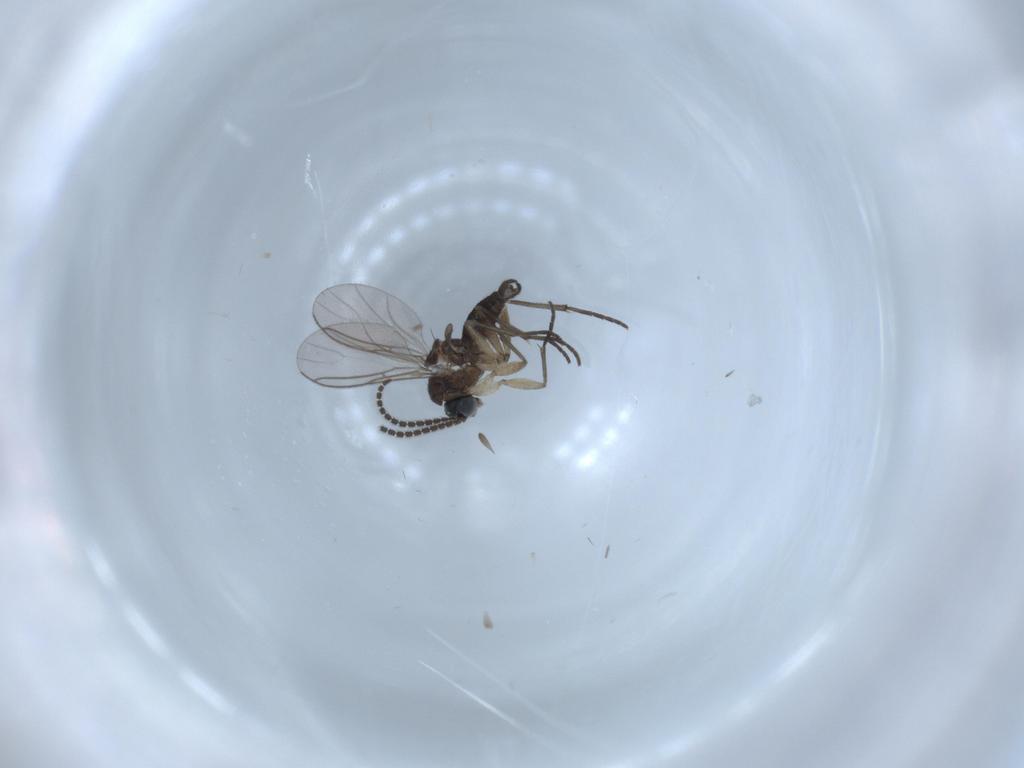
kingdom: Animalia
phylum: Arthropoda
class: Insecta
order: Diptera
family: Sciaridae
